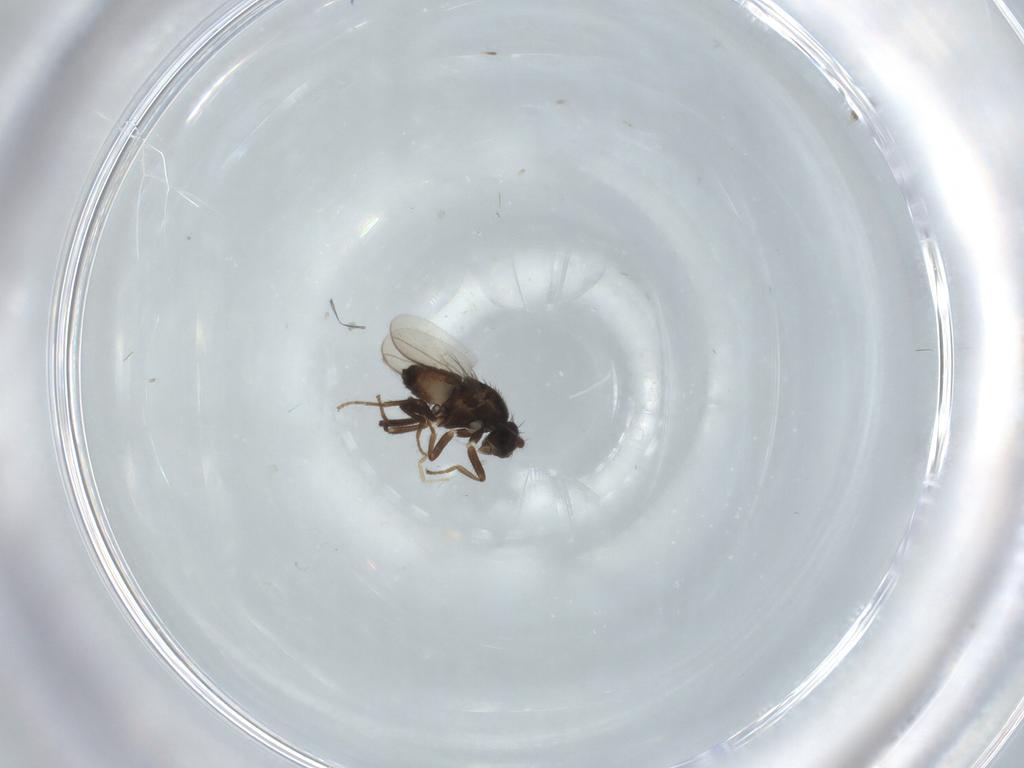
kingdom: Animalia
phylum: Arthropoda
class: Insecta
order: Diptera
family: Sphaeroceridae
